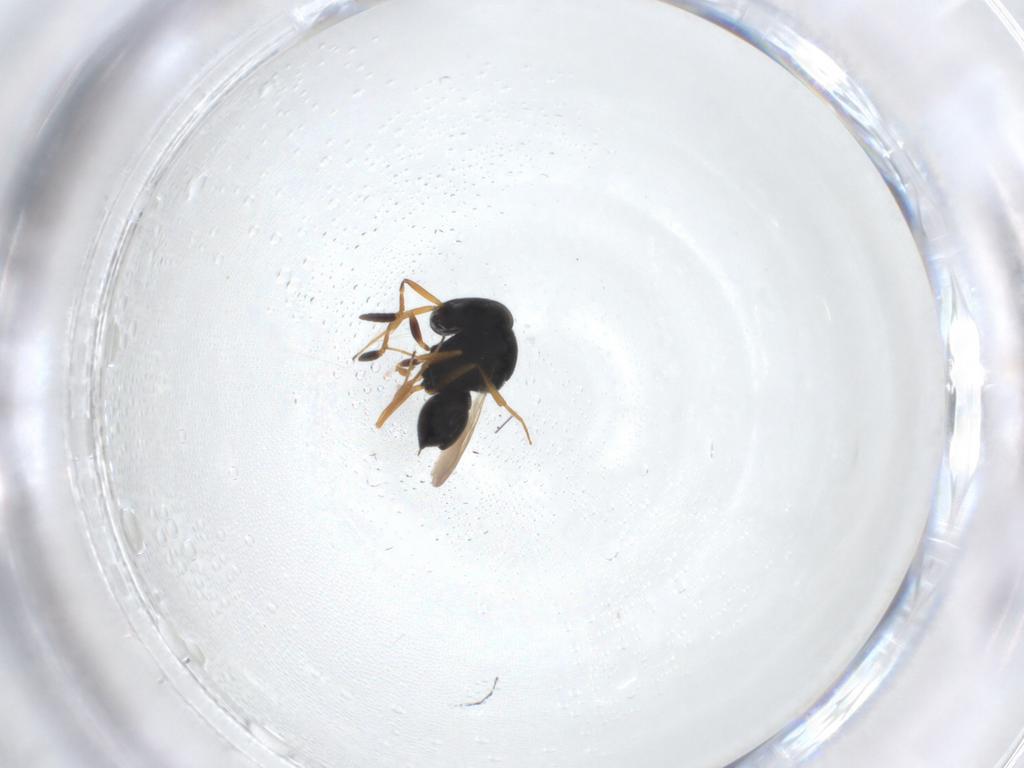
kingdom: Animalia
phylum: Arthropoda
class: Insecta
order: Hymenoptera
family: Scelionidae
